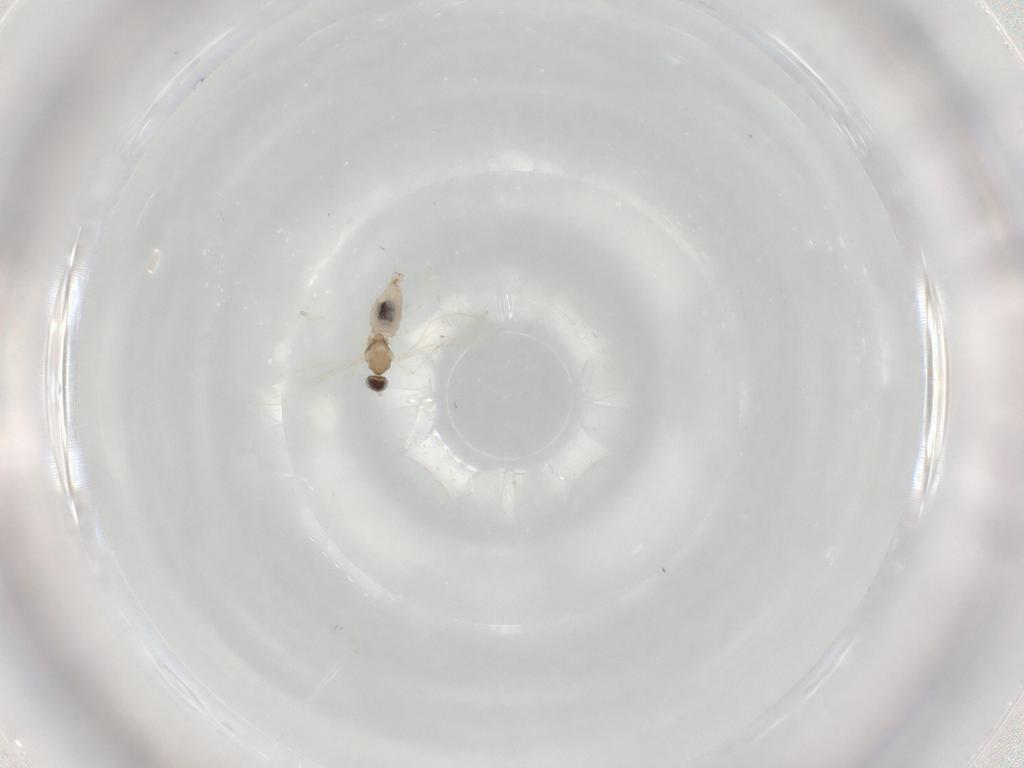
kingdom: Animalia
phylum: Arthropoda
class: Insecta
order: Diptera
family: Cecidomyiidae
